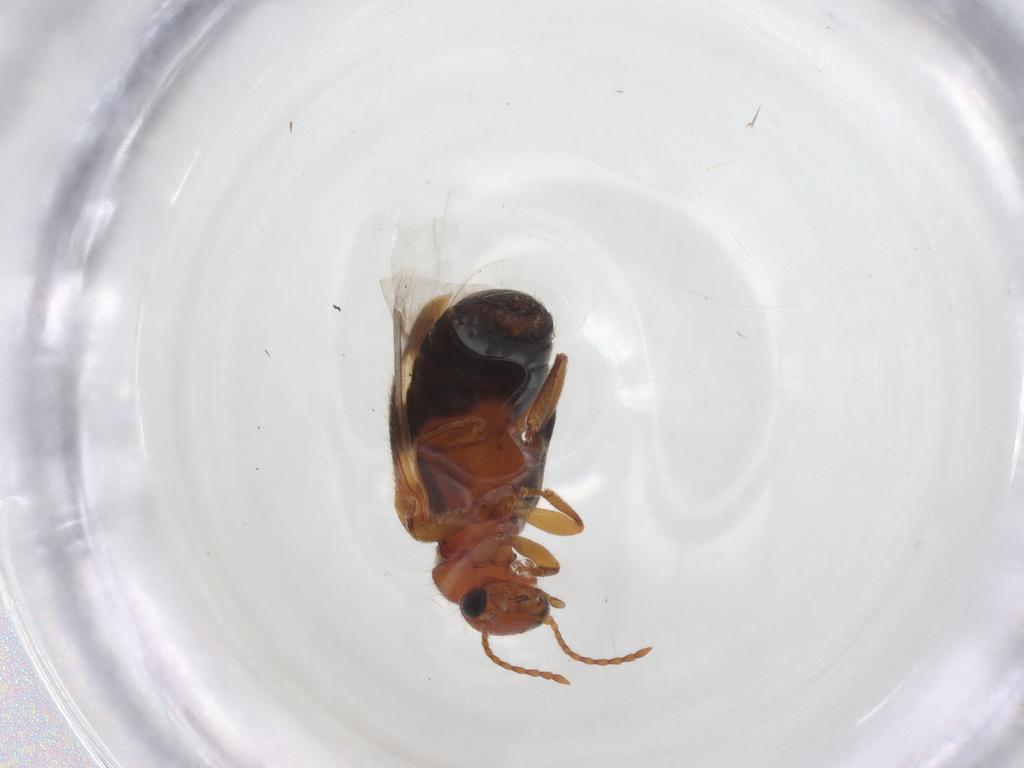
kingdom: Animalia
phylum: Arthropoda
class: Insecta
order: Coleoptera
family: Anthicidae
